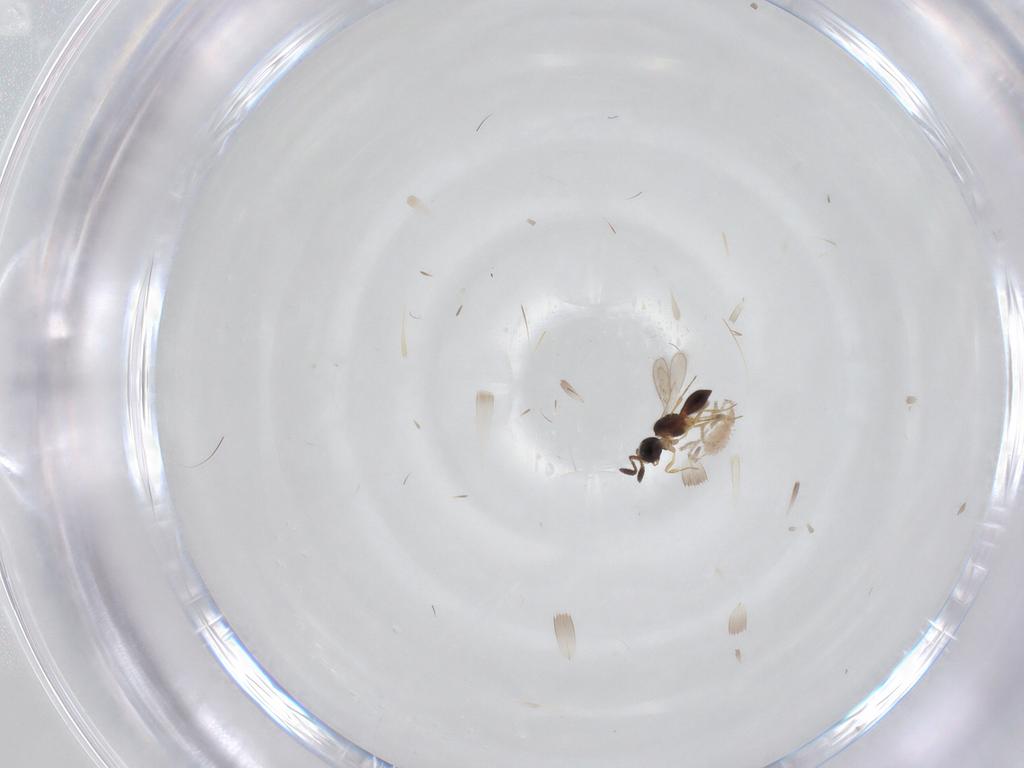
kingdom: Animalia
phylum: Arthropoda
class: Insecta
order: Hymenoptera
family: Scelionidae
